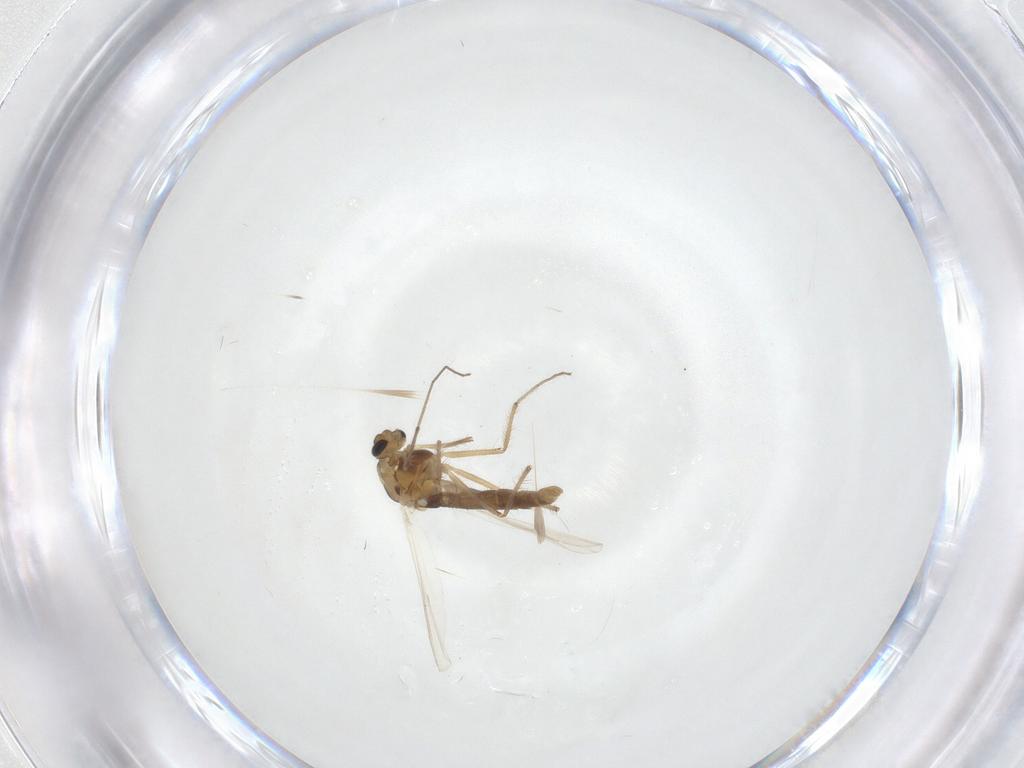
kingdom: Animalia
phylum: Arthropoda
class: Insecta
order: Diptera
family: Chironomidae
